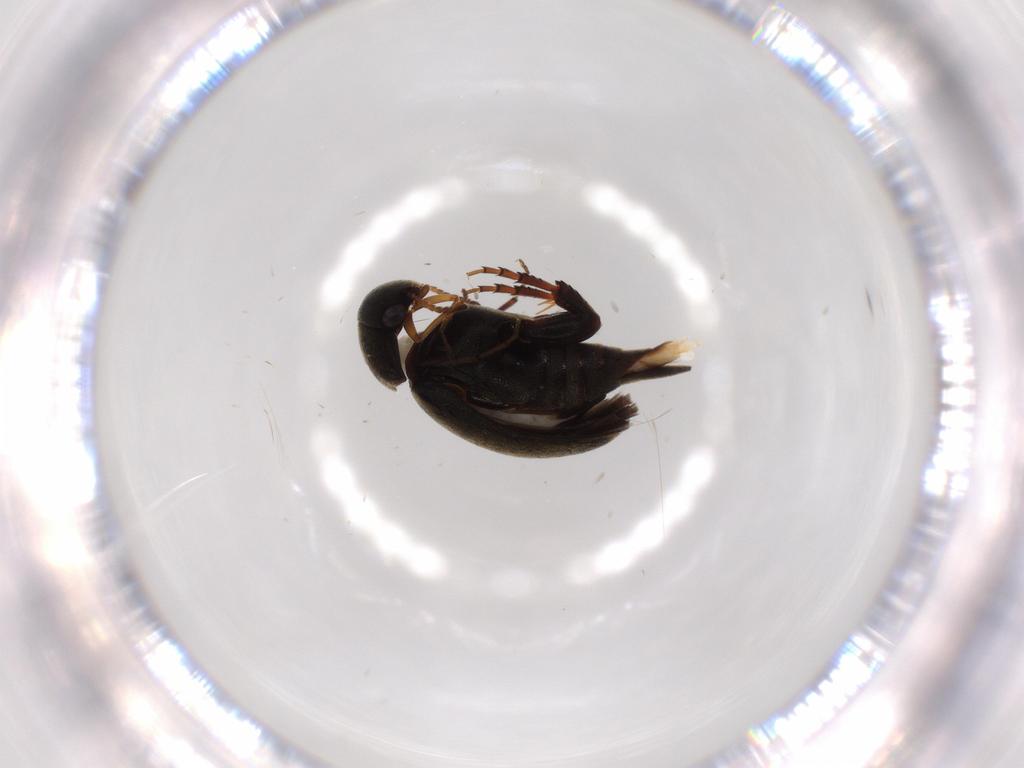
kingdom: Animalia
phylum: Arthropoda
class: Insecta
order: Coleoptera
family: Mordellidae
